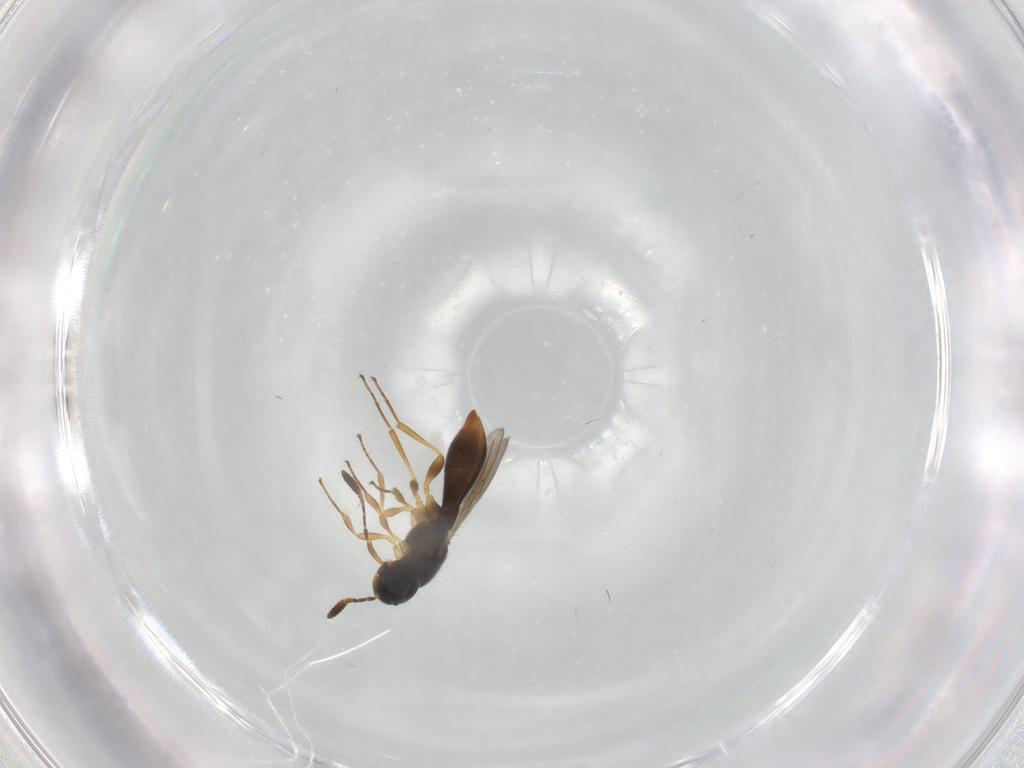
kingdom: Animalia
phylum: Arthropoda
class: Insecta
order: Hymenoptera
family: Scelionidae
